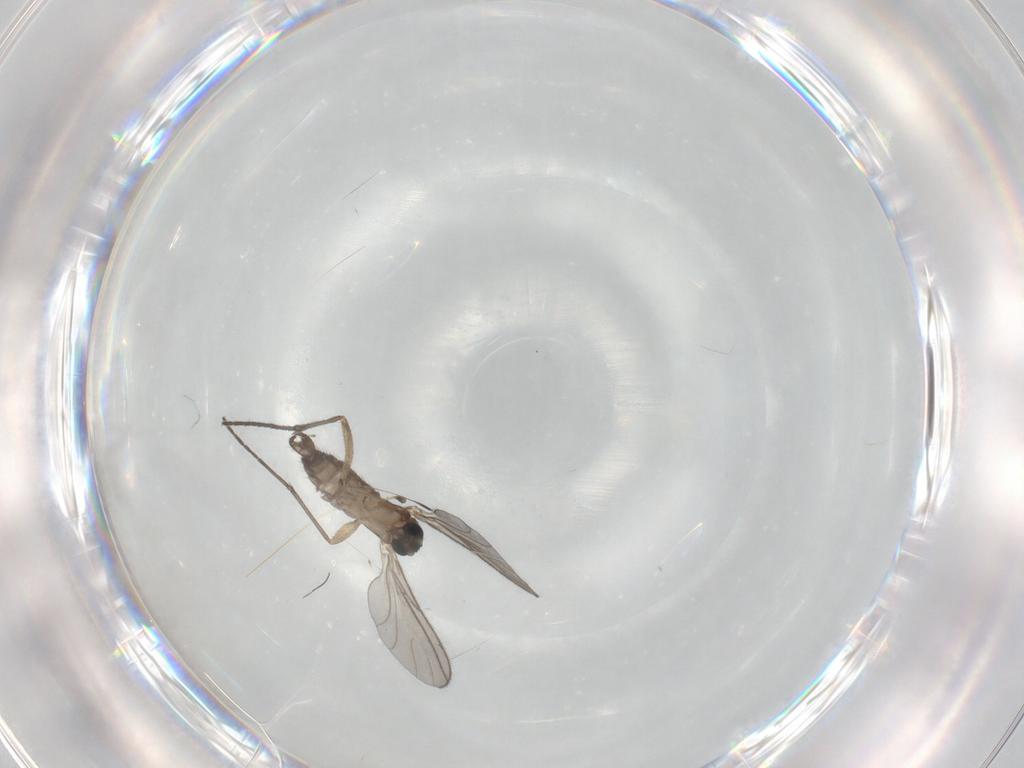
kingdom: Animalia
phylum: Arthropoda
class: Insecta
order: Diptera
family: Sciaridae
